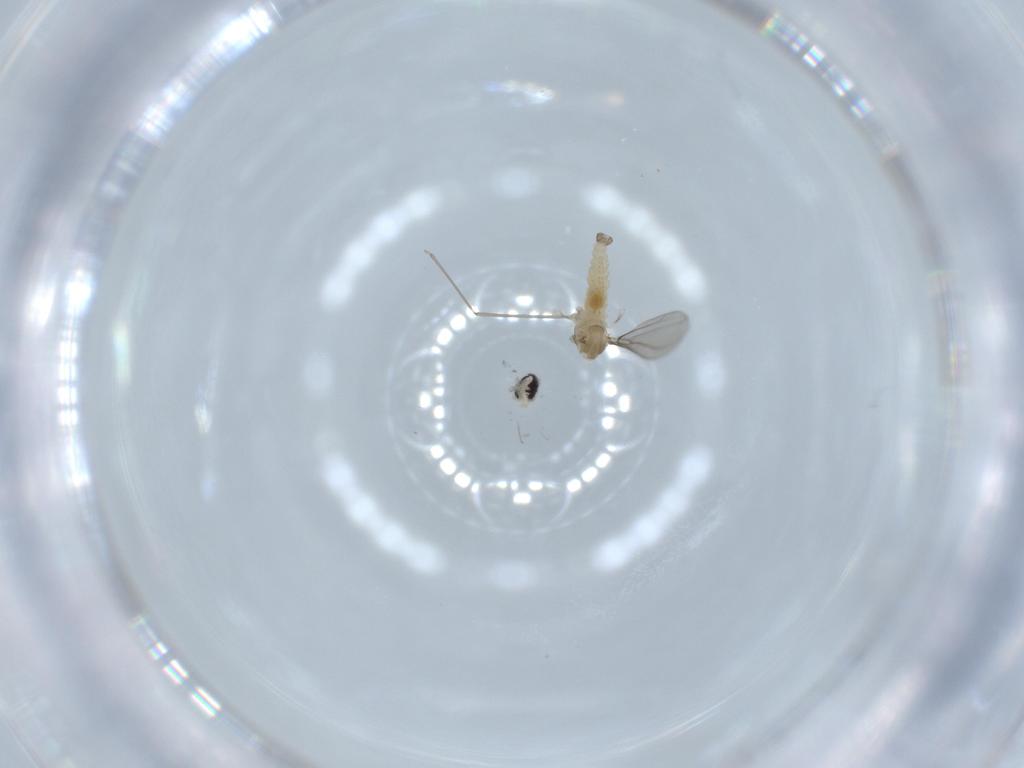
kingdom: Animalia
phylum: Arthropoda
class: Insecta
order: Diptera
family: Cecidomyiidae
